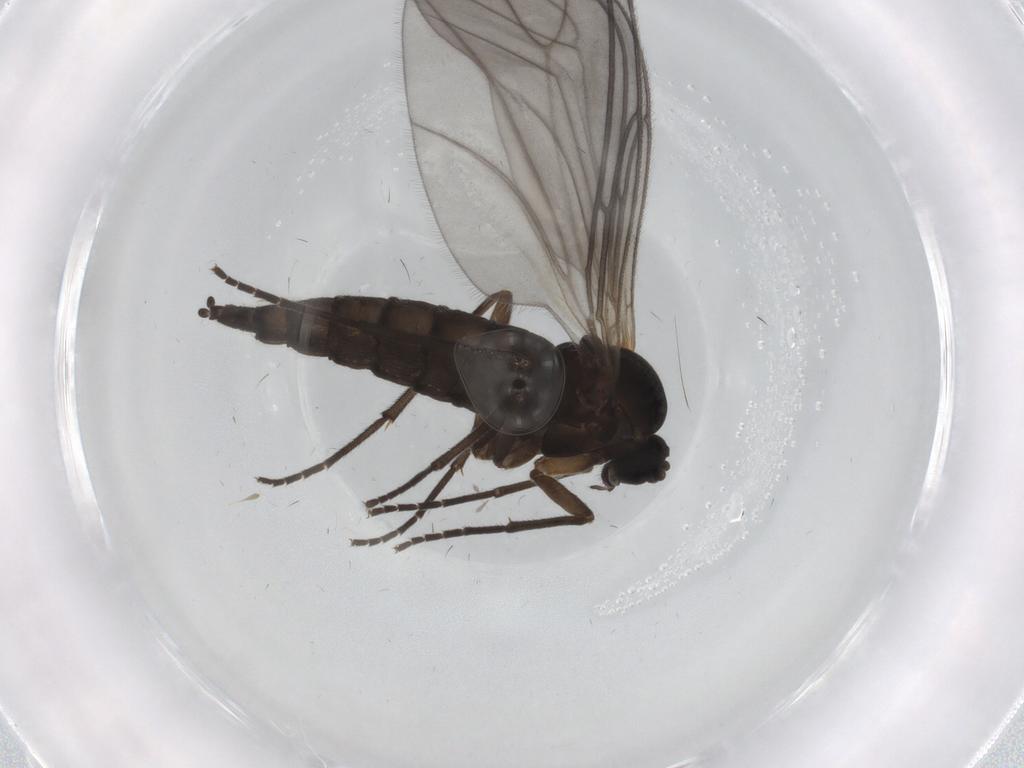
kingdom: Animalia
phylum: Arthropoda
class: Insecta
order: Diptera
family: Sciaridae
